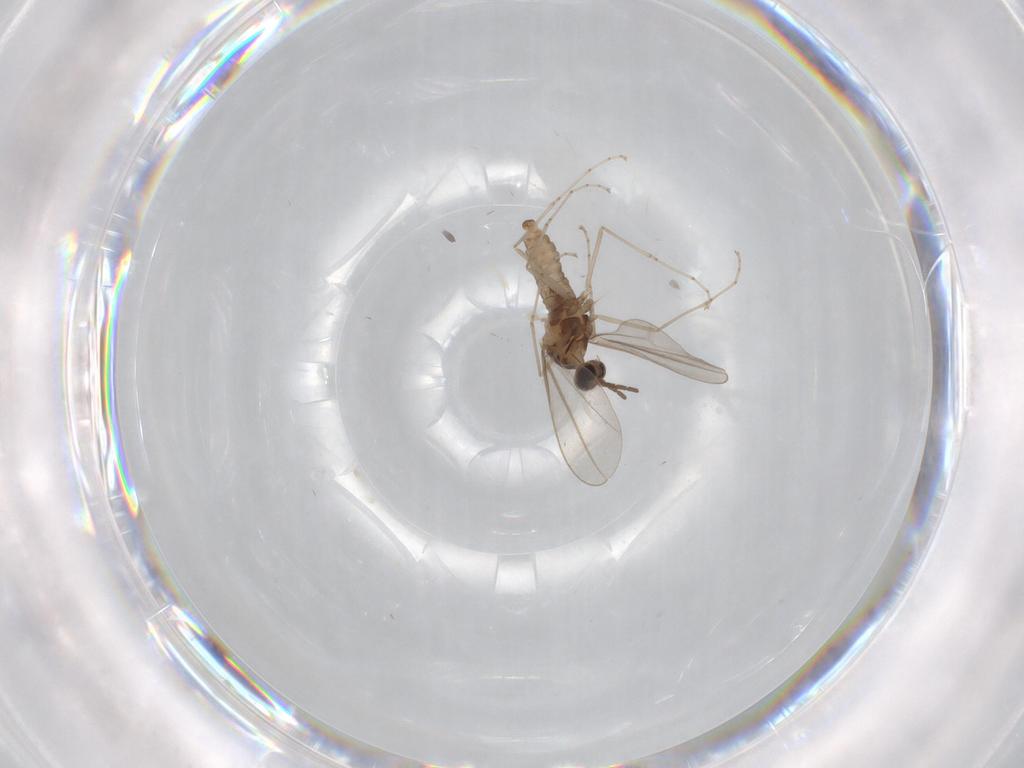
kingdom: Animalia
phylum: Arthropoda
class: Insecta
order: Diptera
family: Cecidomyiidae
